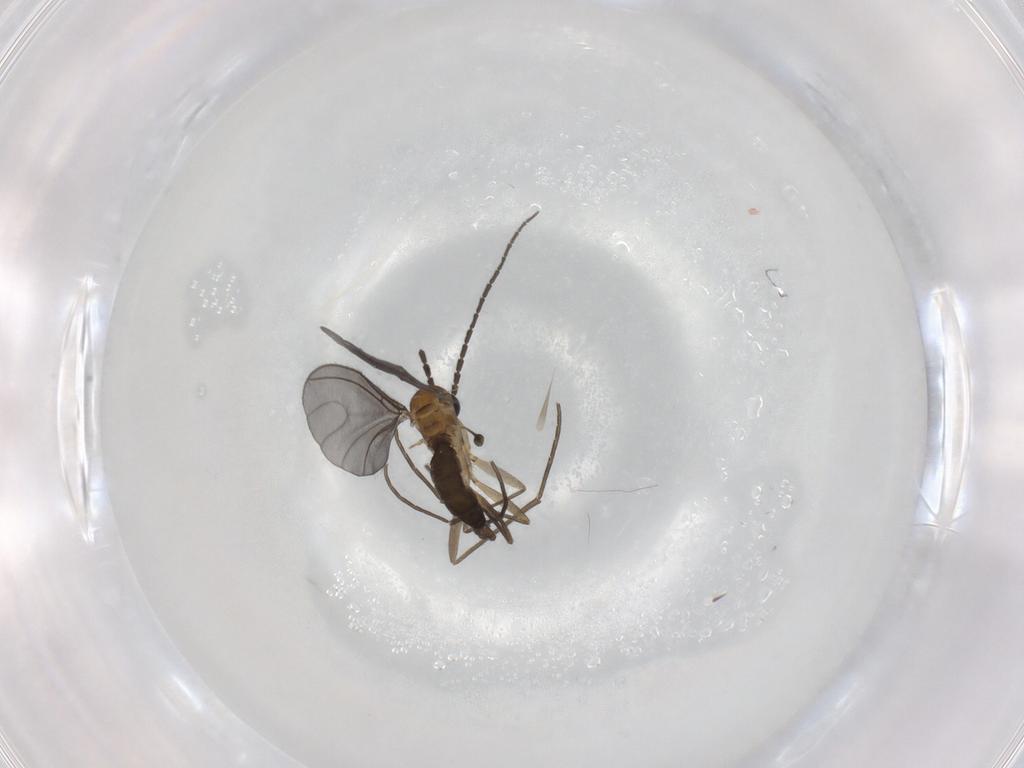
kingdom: Animalia
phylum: Arthropoda
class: Insecta
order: Diptera
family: Sciaridae
